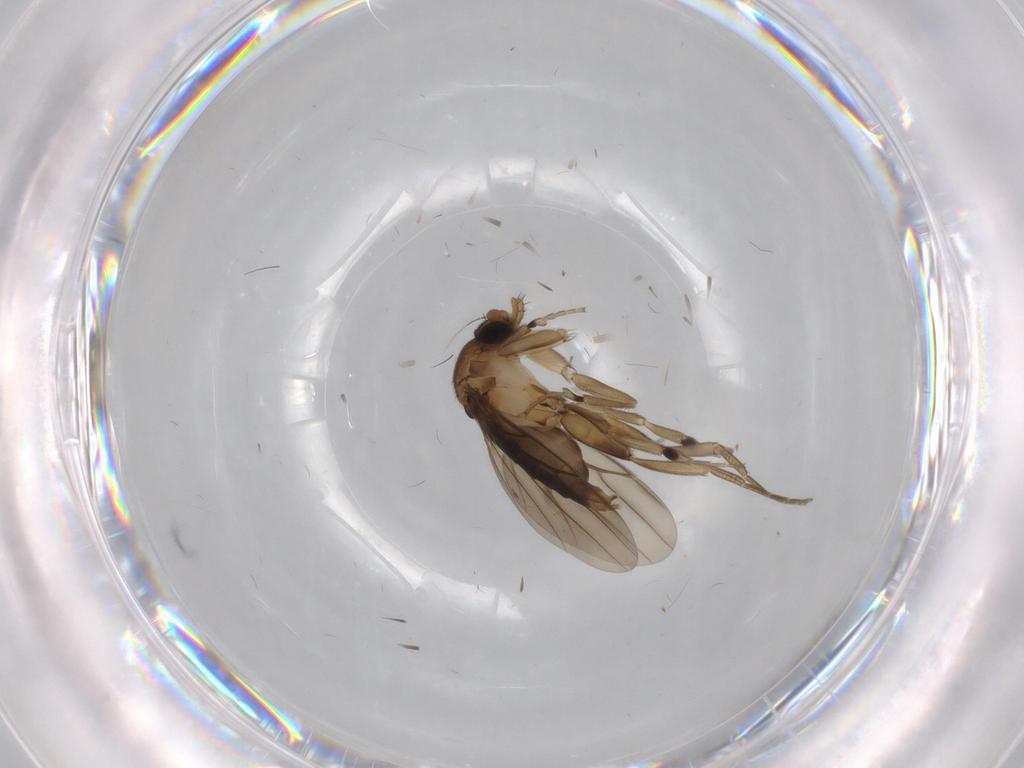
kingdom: Animalia
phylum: Arthropoda
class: Insecta
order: Diptera
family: Phoridae
